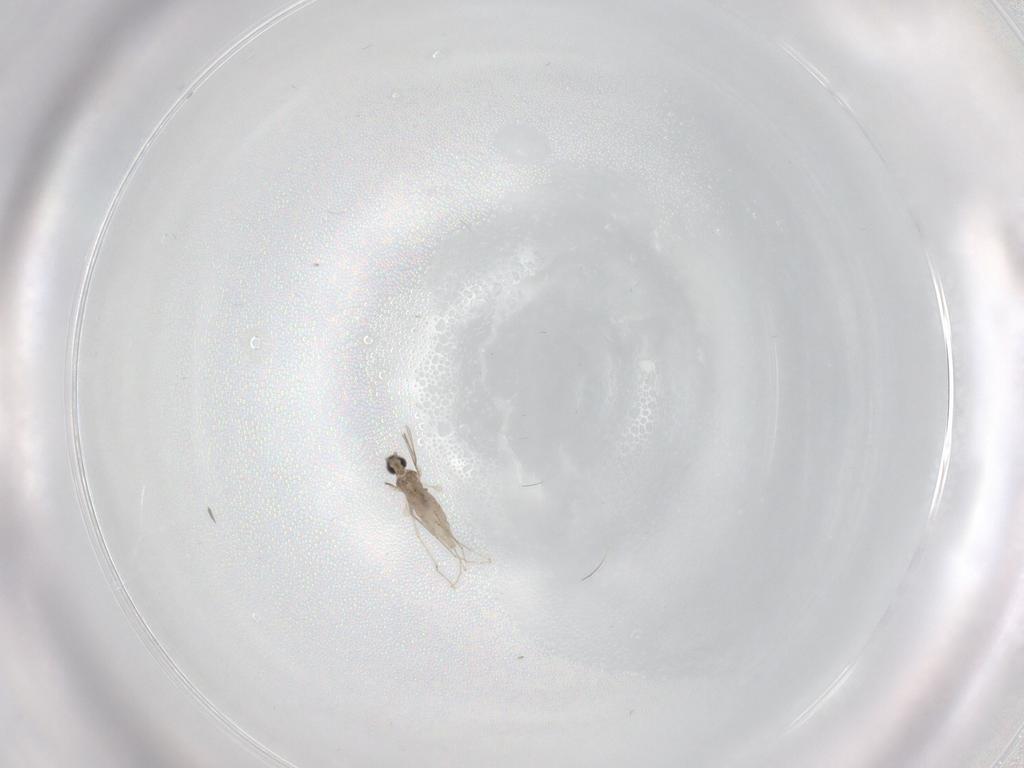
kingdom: Animalia
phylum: Arthropoda
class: Insecta
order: Diptera
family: Cecidomyiidae
